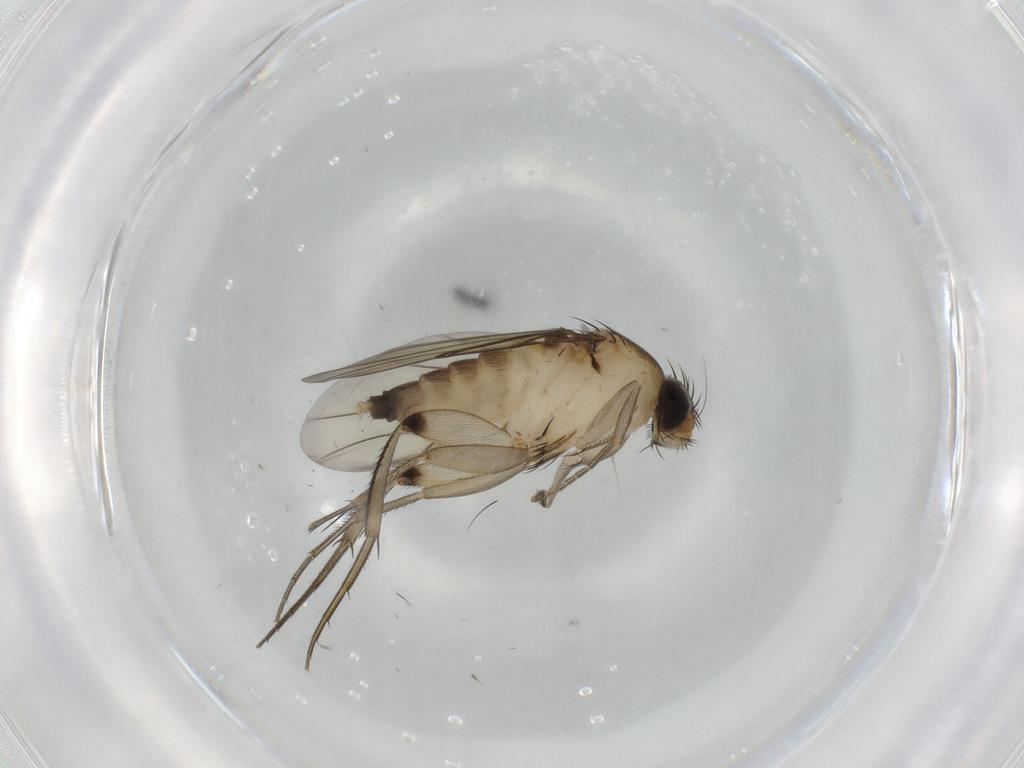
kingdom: Animalia
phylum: Arthropoda
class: Insecta
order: Diptera
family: Phoridae
